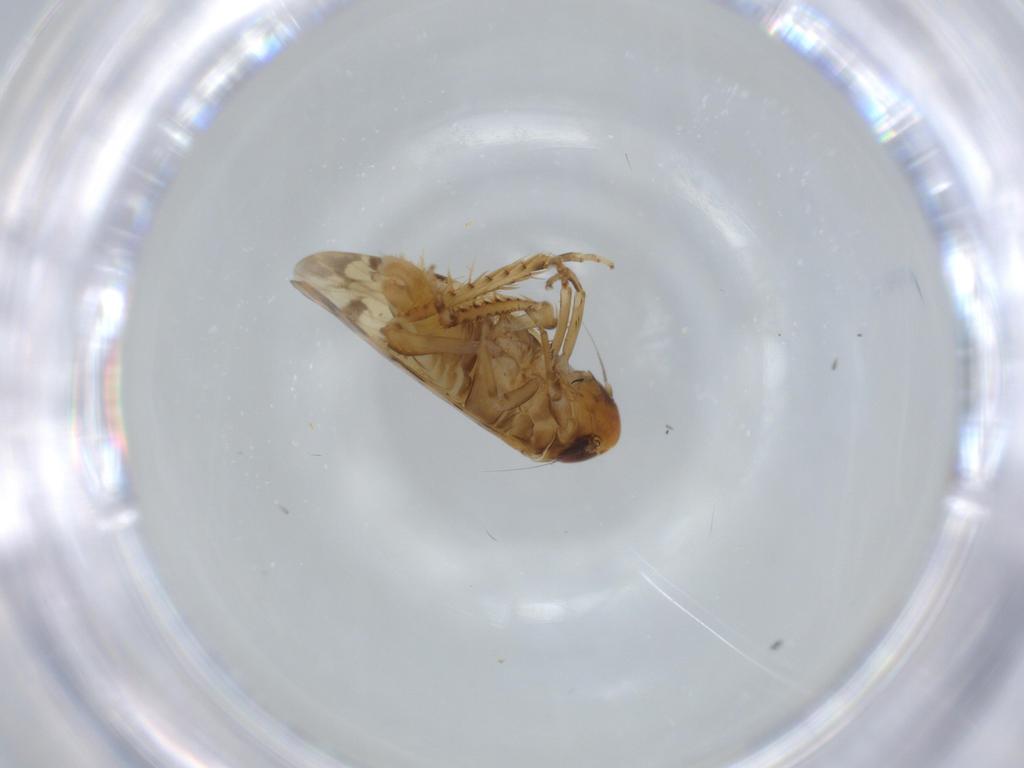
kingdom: Animalia
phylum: Arthropoda
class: Insecta
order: Hemiptera
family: Cicadellidae
